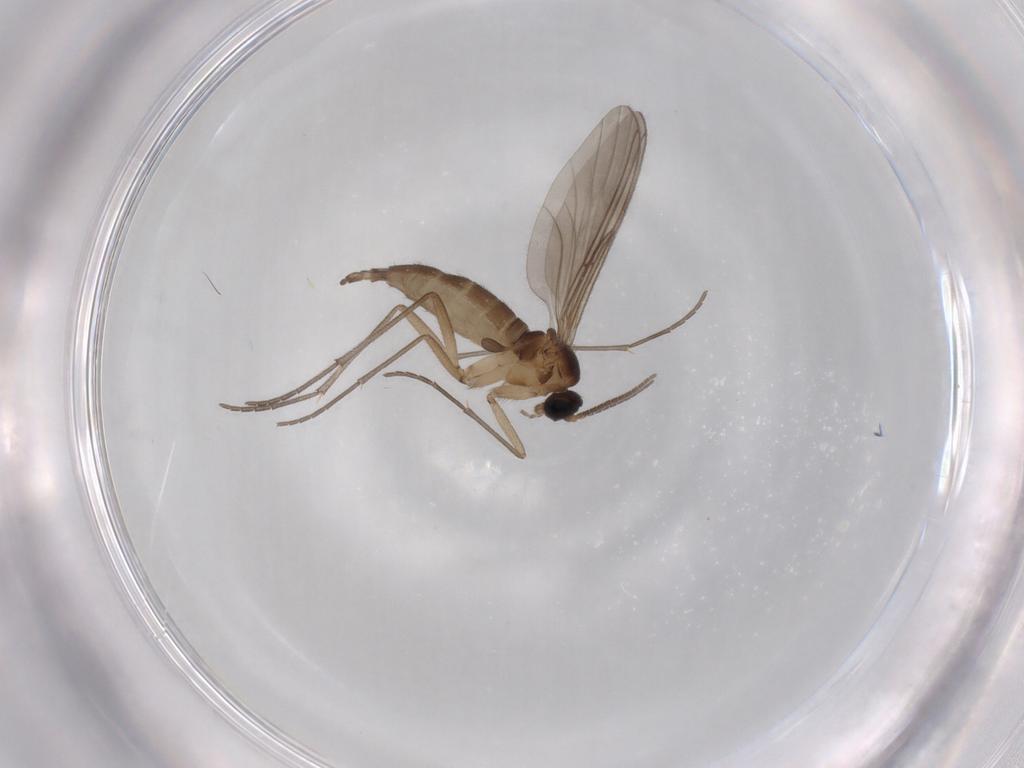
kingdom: Animalia
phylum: Arthropoda
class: Insecta
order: Diptera
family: Sciaridae
